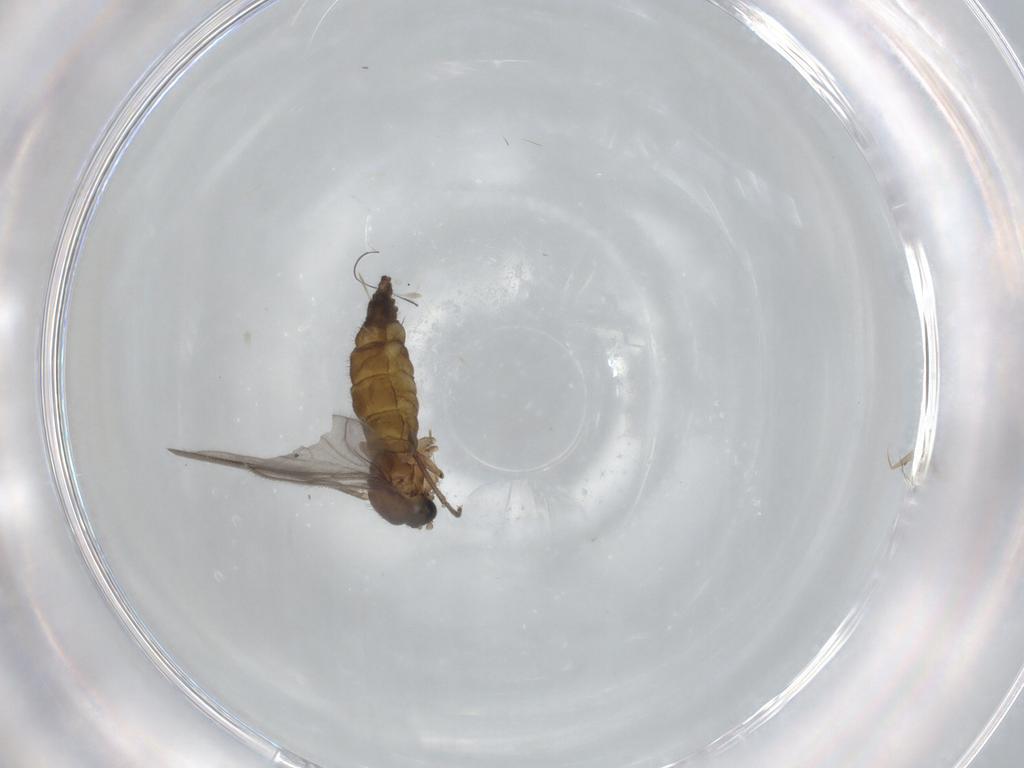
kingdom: Animalia
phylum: Arthropoda
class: Insecta
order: Diptera
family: Sciaridae
